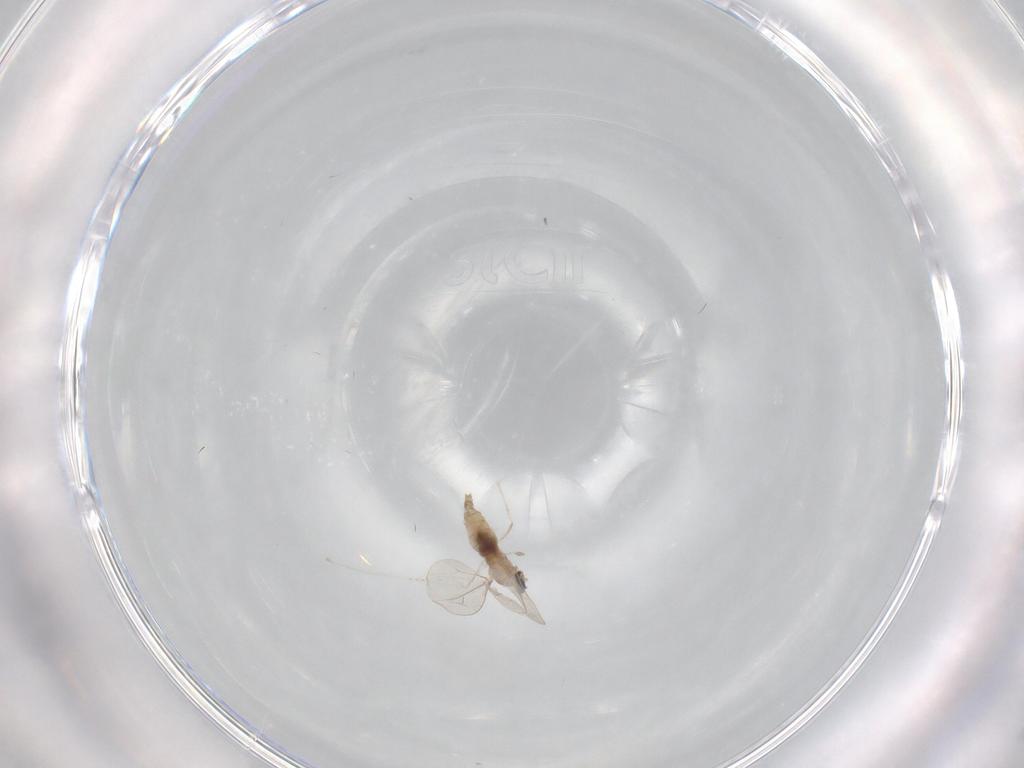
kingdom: Animalia
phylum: Arthropoda
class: Insecta
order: Diptera
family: Cecidomyiidae
